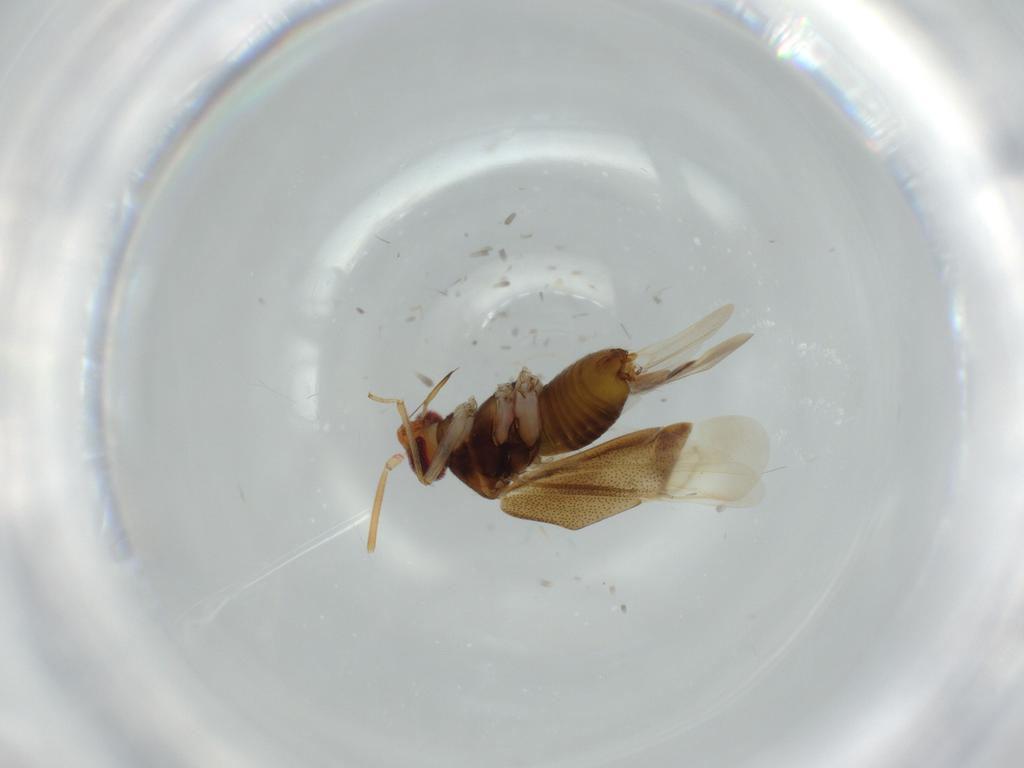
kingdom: Animalia
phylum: Arthropoda
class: Insecta
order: Hemiptera
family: Miridae
